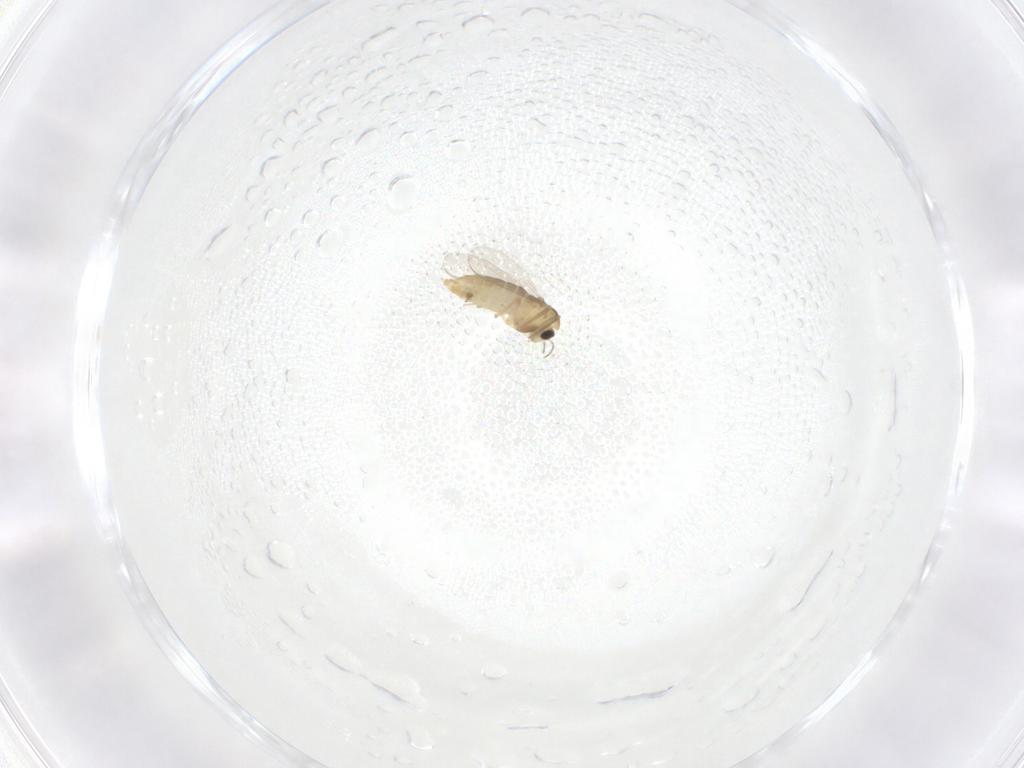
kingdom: Animalia
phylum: Arthropoda
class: Insecta
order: Diptera
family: Chironomidae
